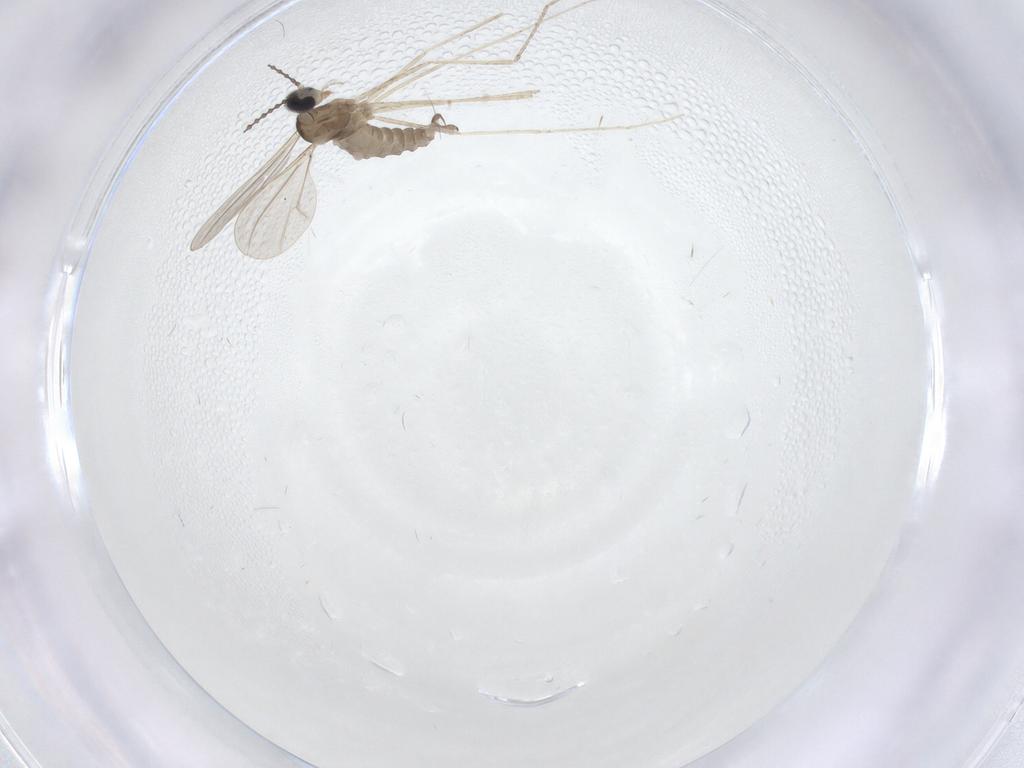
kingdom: Animalia
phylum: Arthropoda
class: Insecta
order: Diptera
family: Cecidomyiidae
